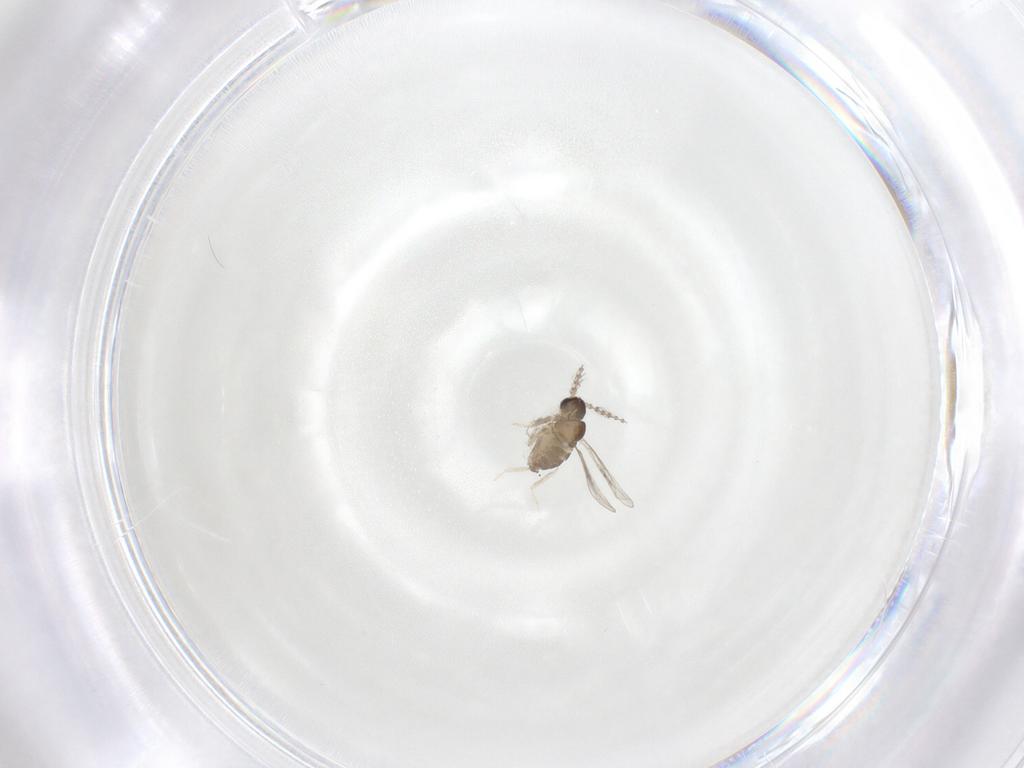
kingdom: Animalia
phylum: Arthropoda
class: Insecta
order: Diptera
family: Cecidomyiidae
